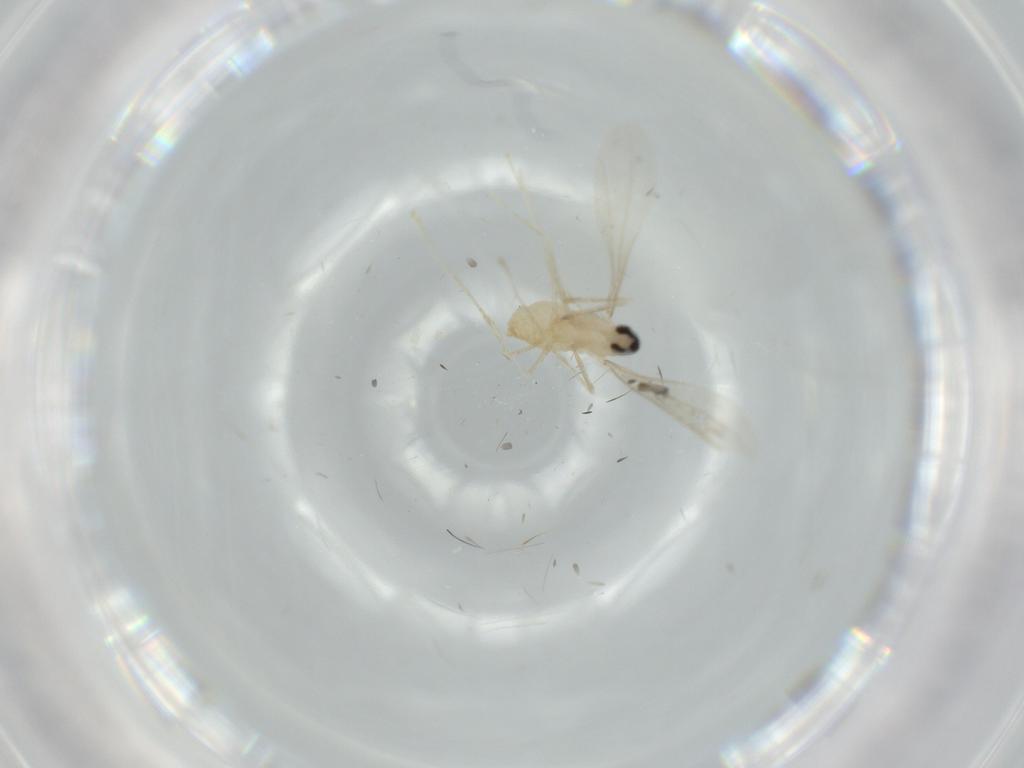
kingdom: Animalia
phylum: Arthropoda
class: Insecta
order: Diptera
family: Cecidomyiidae
